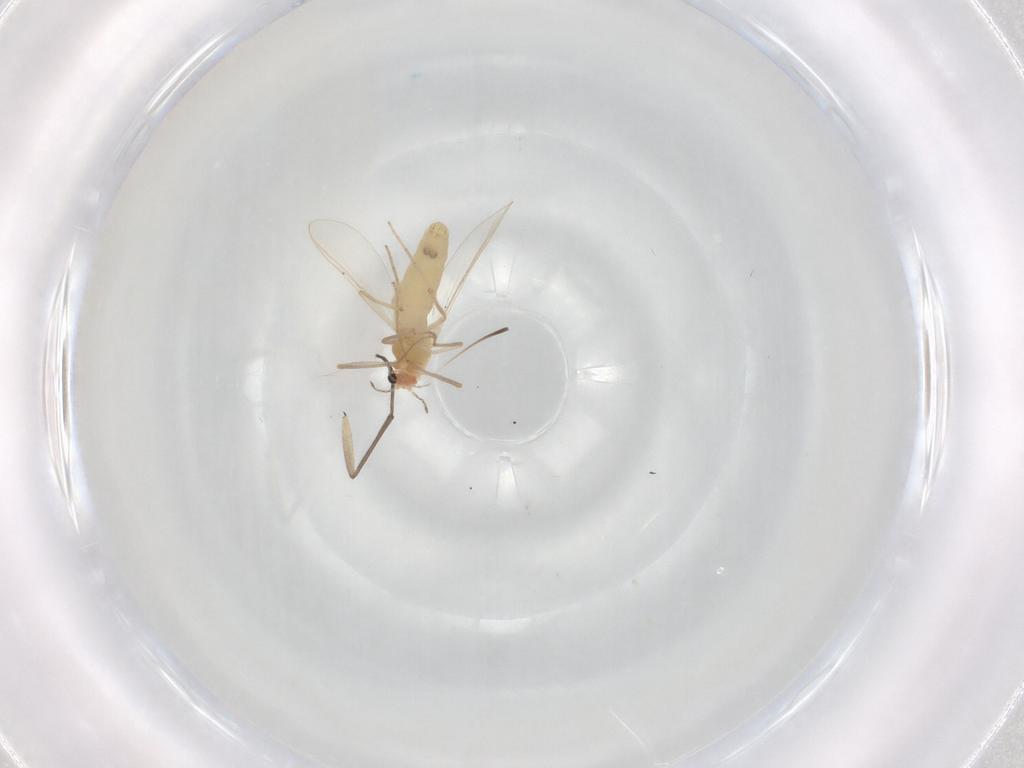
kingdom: Animalia
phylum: Arthropoda
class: Insecta
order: Diptera
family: Chironomidae
